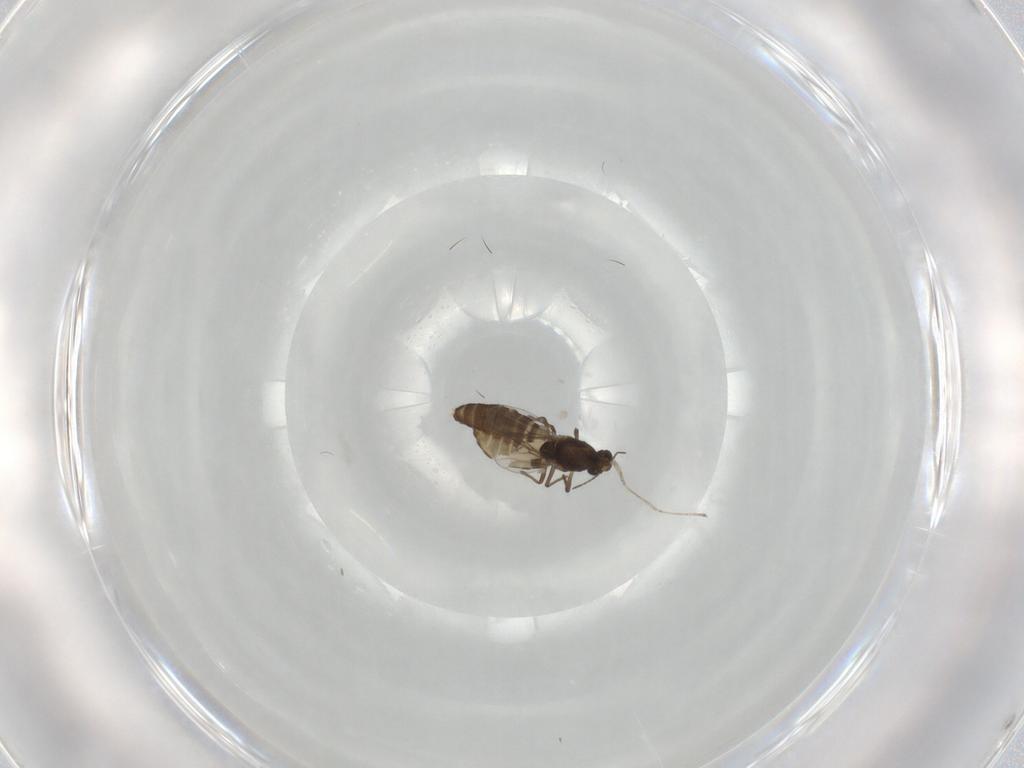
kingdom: Animalia
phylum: Arthropoda
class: Insecta
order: Diptera
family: Chironomidae
